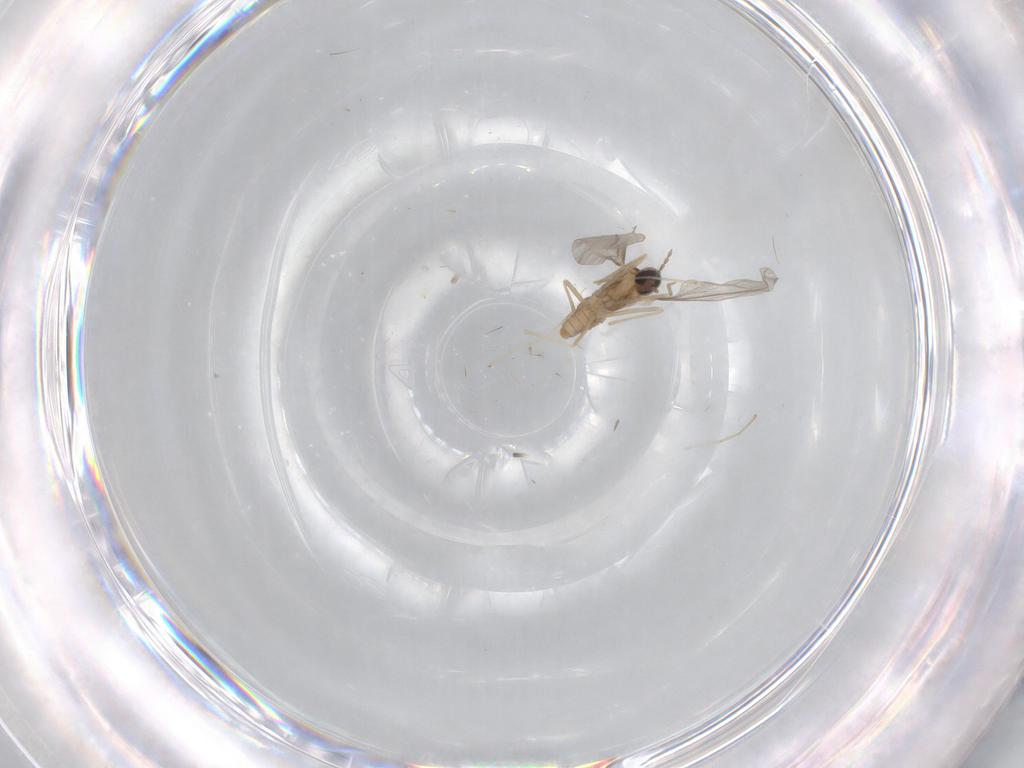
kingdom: Animalia
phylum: Arthropoda
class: Insecta
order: Diptera
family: Cecidomyiidae
